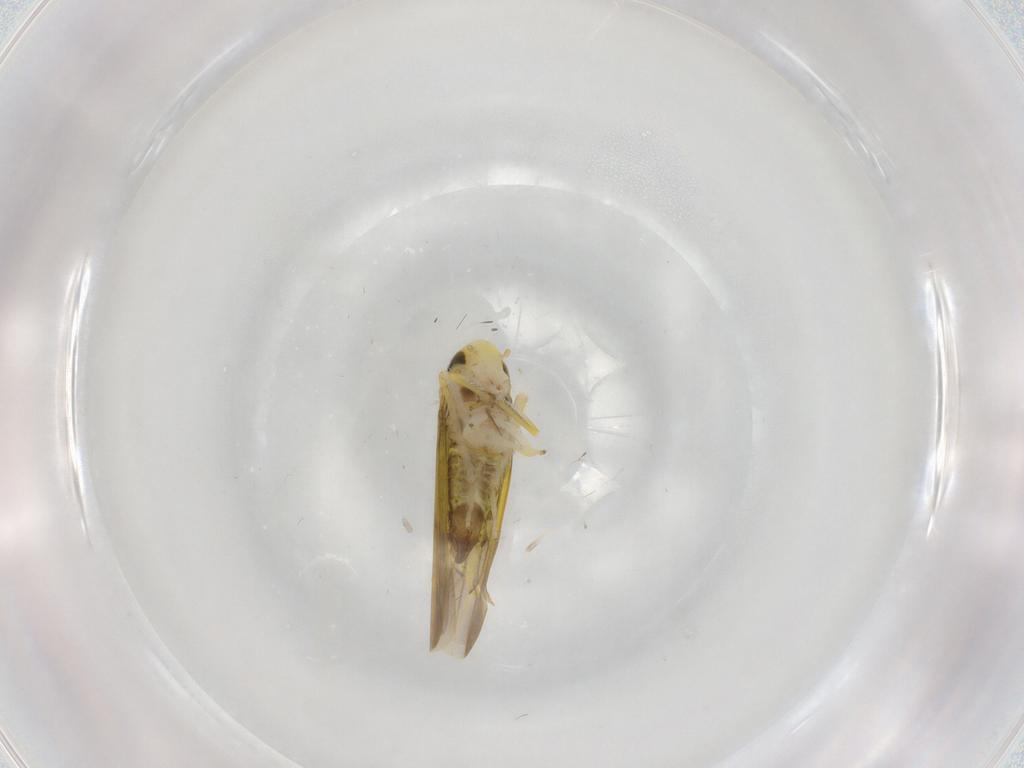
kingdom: Animalia
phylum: Arthropoda
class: Insecta
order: Hemiptera
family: Cicadellidae
